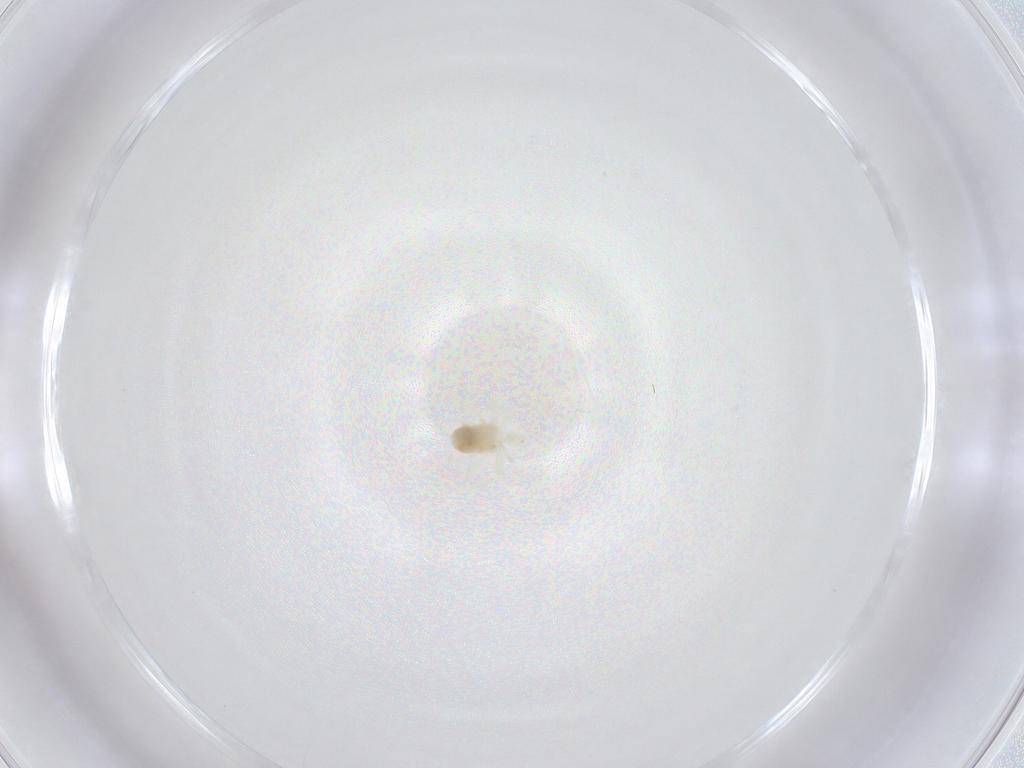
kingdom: Animalia
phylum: Arthropoda
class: Arachnida
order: Trombidiformes
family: Anystidae
